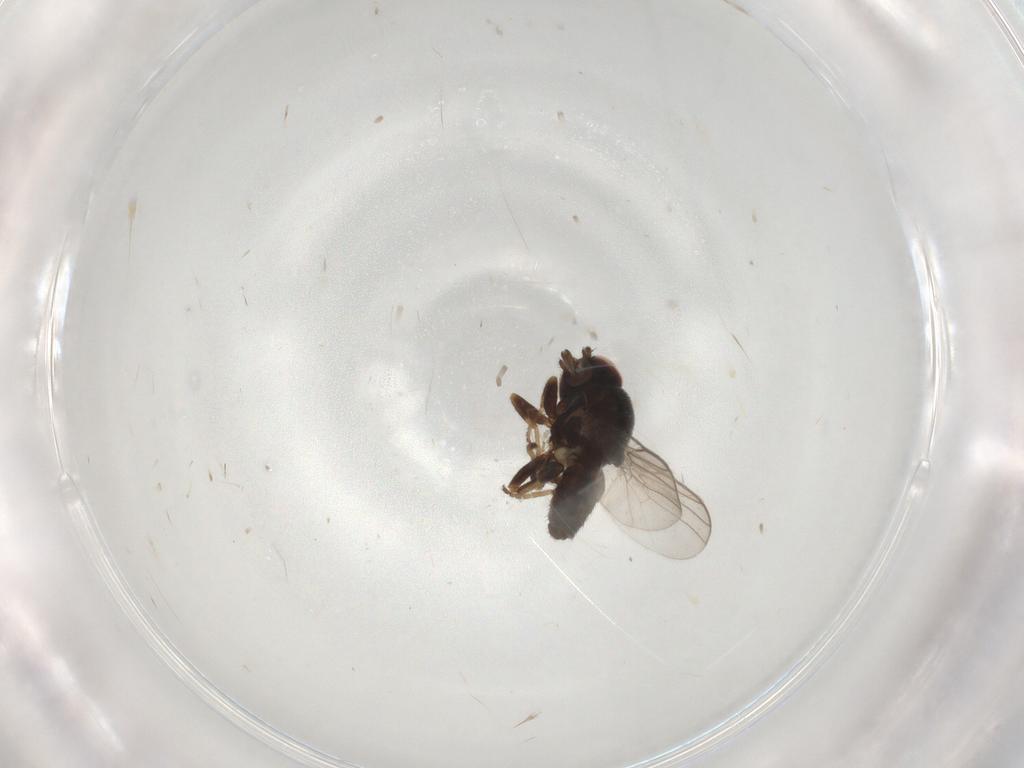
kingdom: Animalia
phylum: Arthropoda
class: Insecta
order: Diptera
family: Chloropidae
